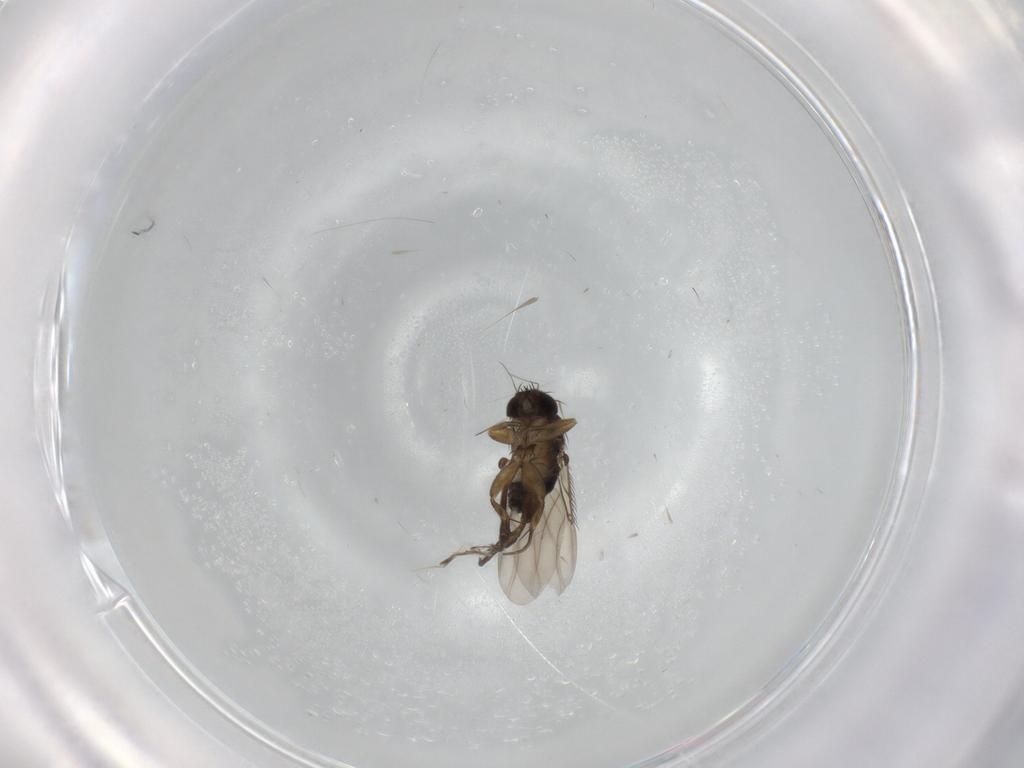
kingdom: Animalia
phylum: Arthropoda
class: Insecta
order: Diptera
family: Phoridae
